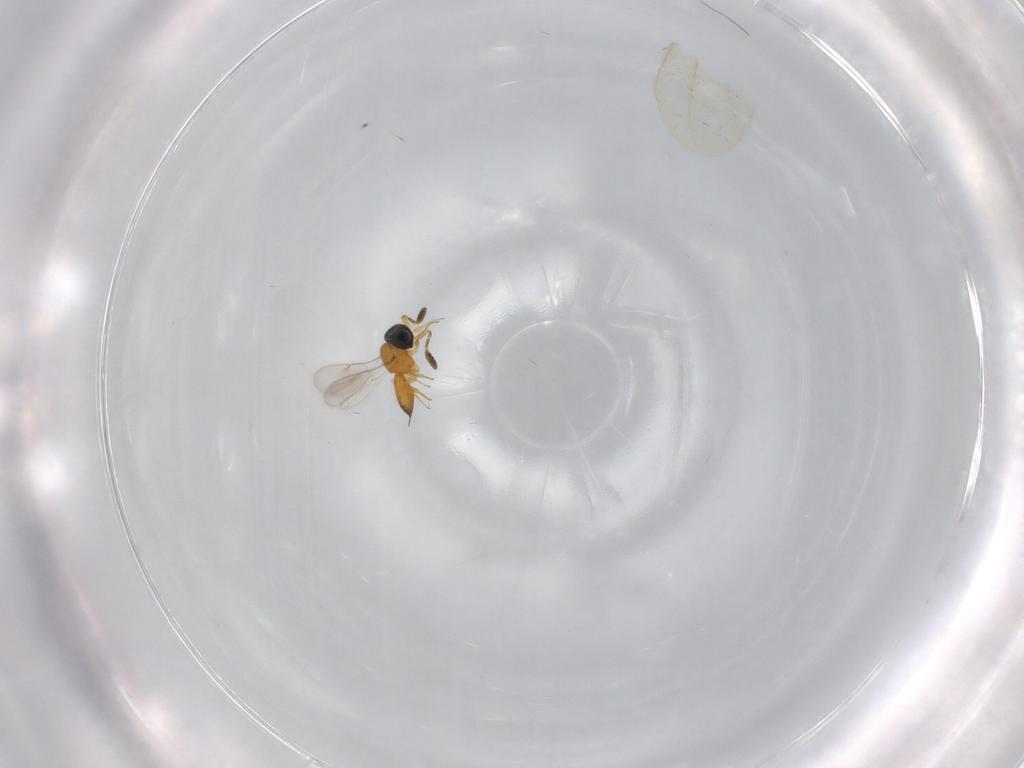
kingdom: Animalia
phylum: Arthropoda
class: Insecta
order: Hymenoptera
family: Scelionidae
